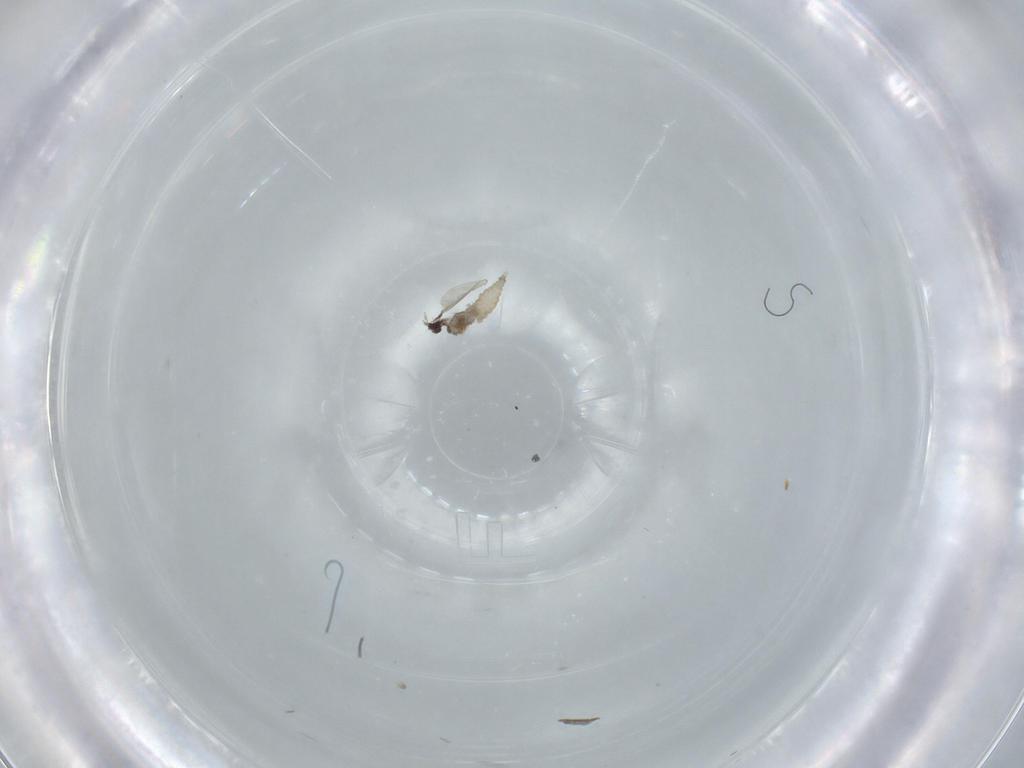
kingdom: Animalia
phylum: Arthropoda
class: Insecta
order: Diptera
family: Cecidomyiidae
